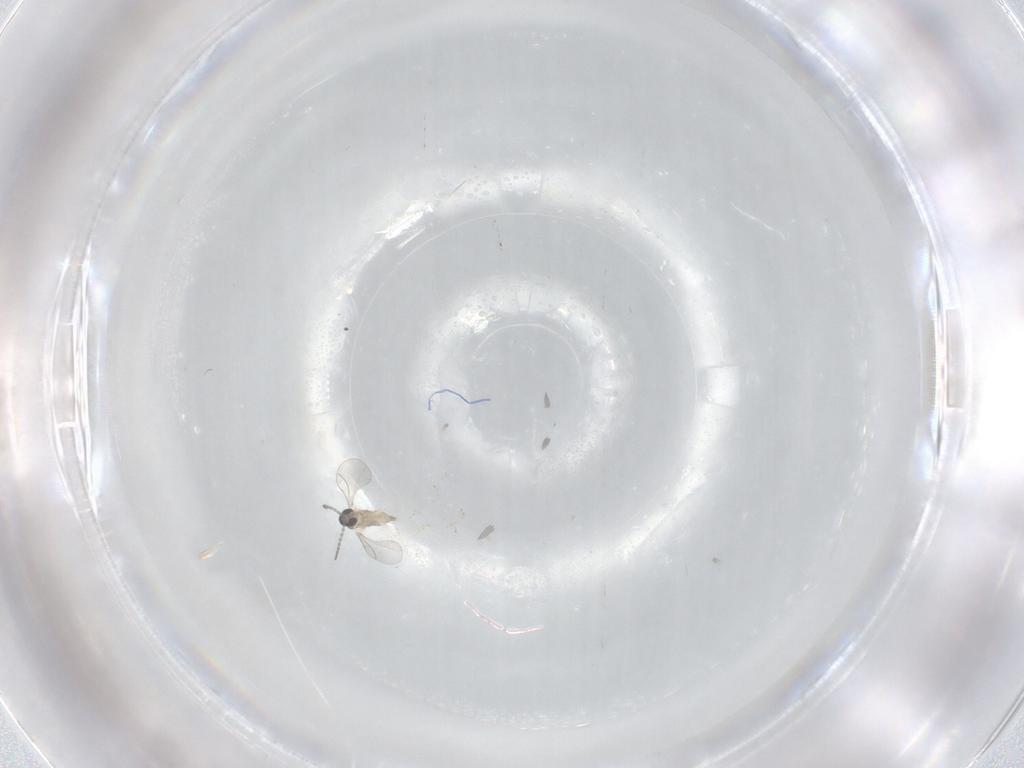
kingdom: Animalia
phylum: Arthropoda
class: Insecta
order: Diptera
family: Cecidomyiidae
